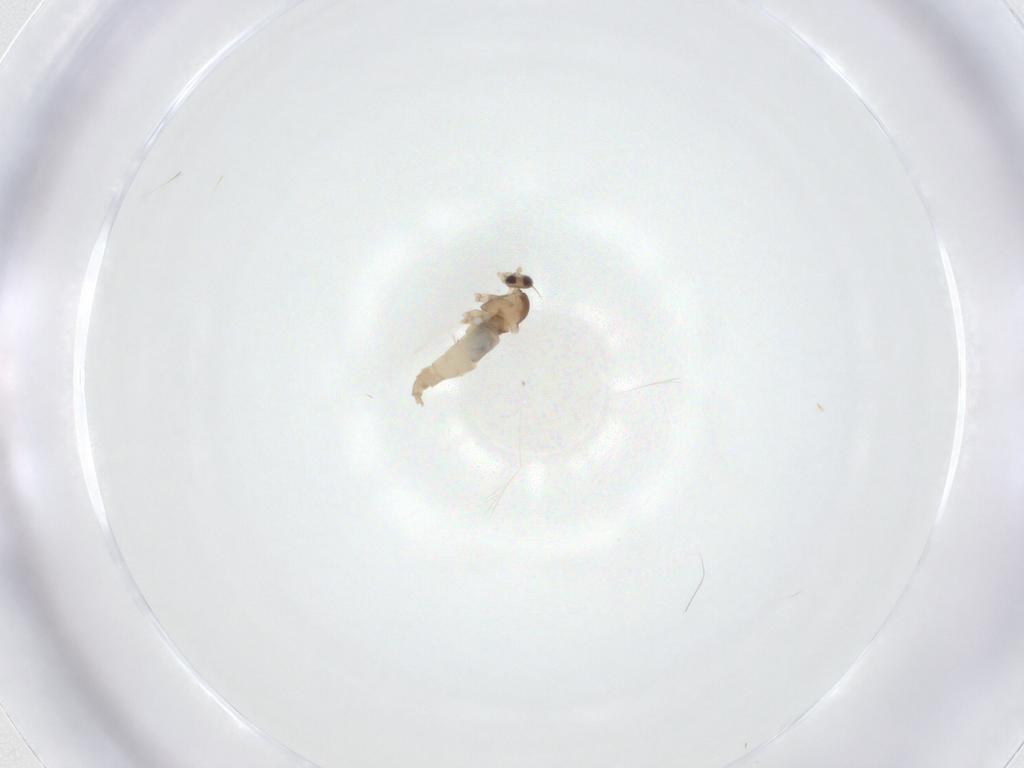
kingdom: Animalia
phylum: Arthropoda
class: Insecta
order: Diptera
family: Cecidomyiidae
